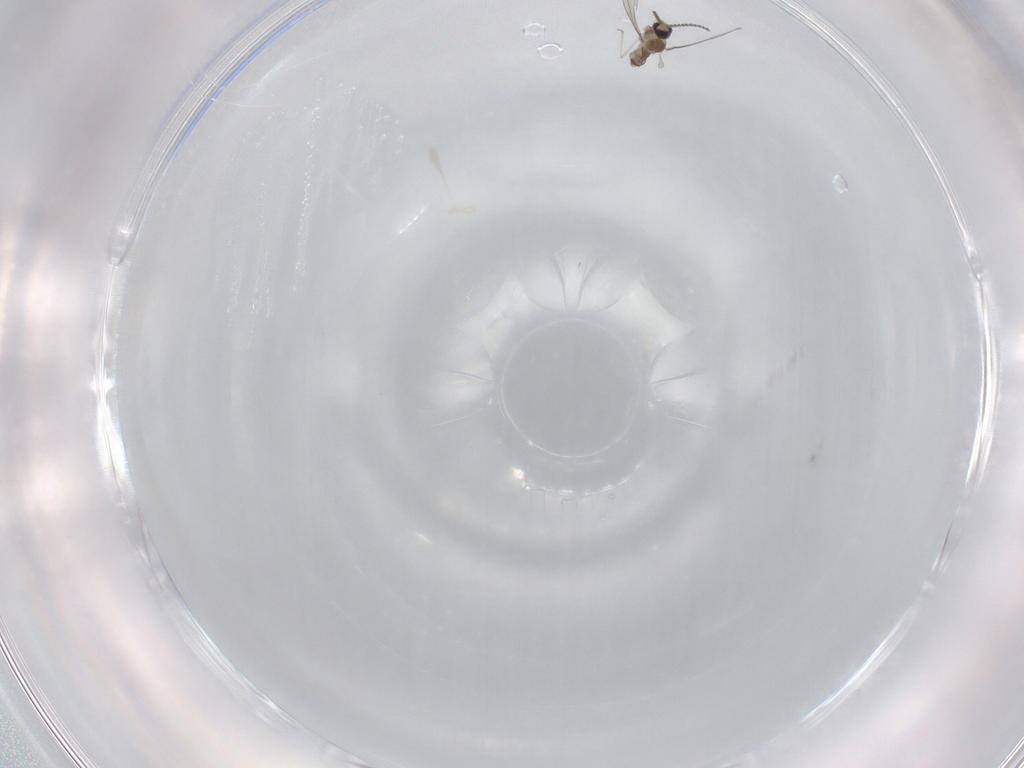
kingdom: Animalia
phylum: Arthropoda
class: Insecta
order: Diptera
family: Cecidomyiidae
